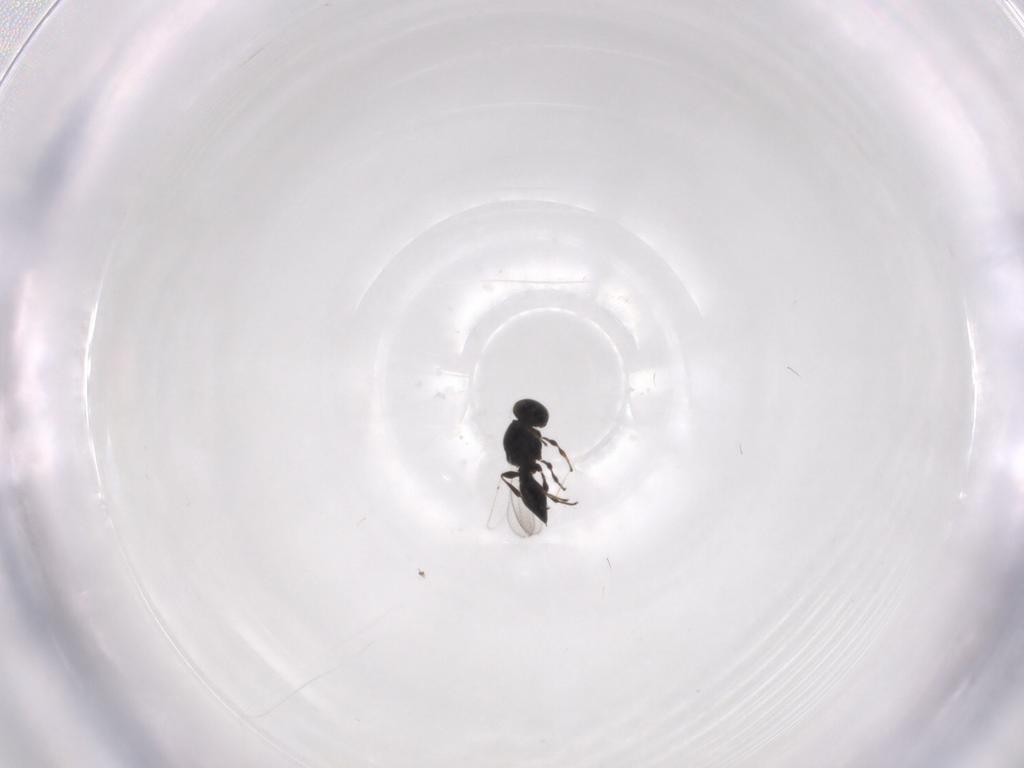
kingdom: Animalia
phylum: Arthropoda
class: Insecta
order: Hymenoptera
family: Platygastridae
